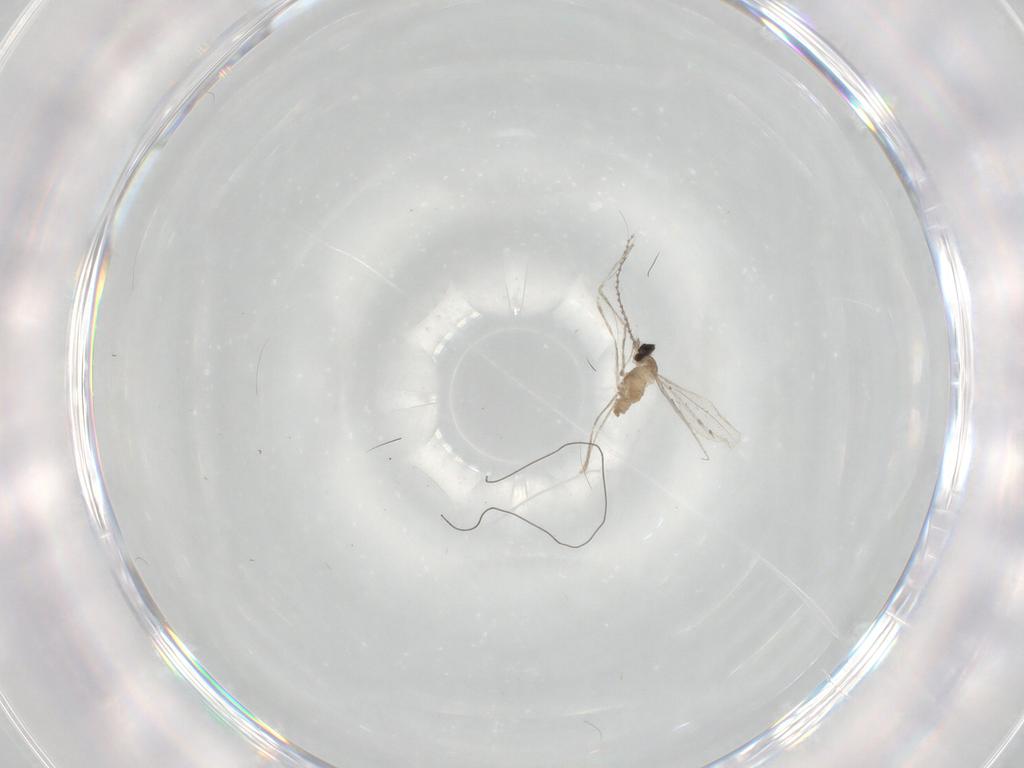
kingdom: Animalia
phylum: Arthropoda
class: Insecta
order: Diptera
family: Cecidomyiidae
